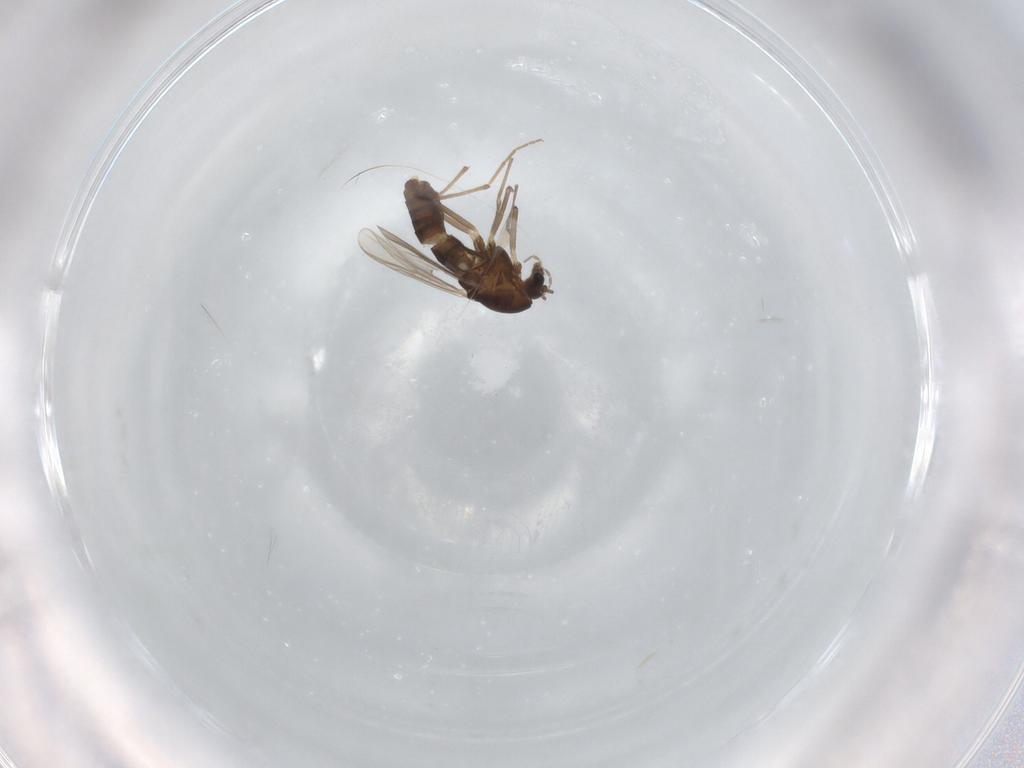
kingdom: Animalia
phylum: Arthropoda
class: Insecta
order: Diptera
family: Chironomidae
